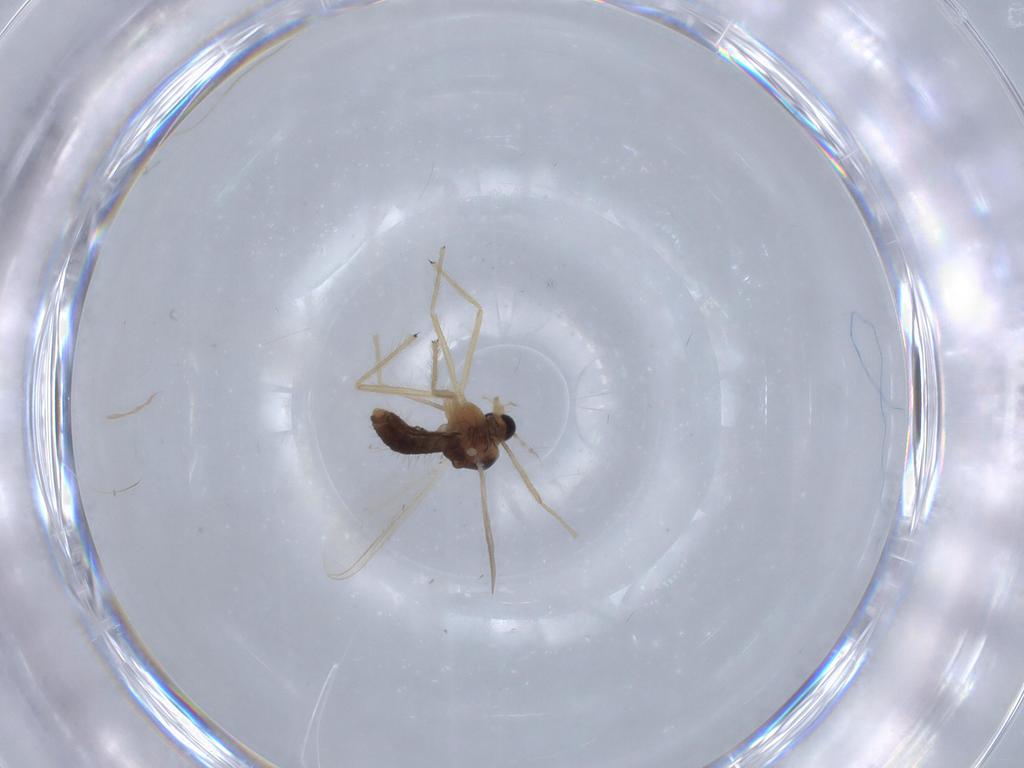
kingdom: Animalia
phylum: Arthropoda
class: Insecta
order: Diptera
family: Chironomidae
